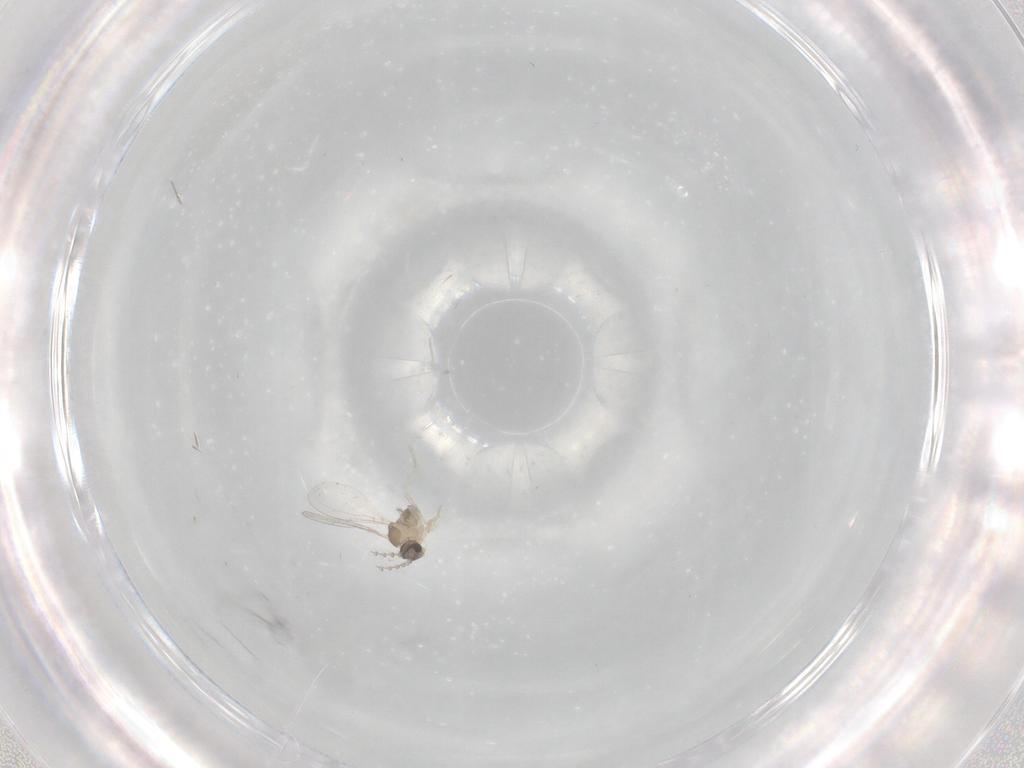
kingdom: Animalia
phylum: Arthropoda
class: Insecta
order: Diptera
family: Cecidomyiidae
